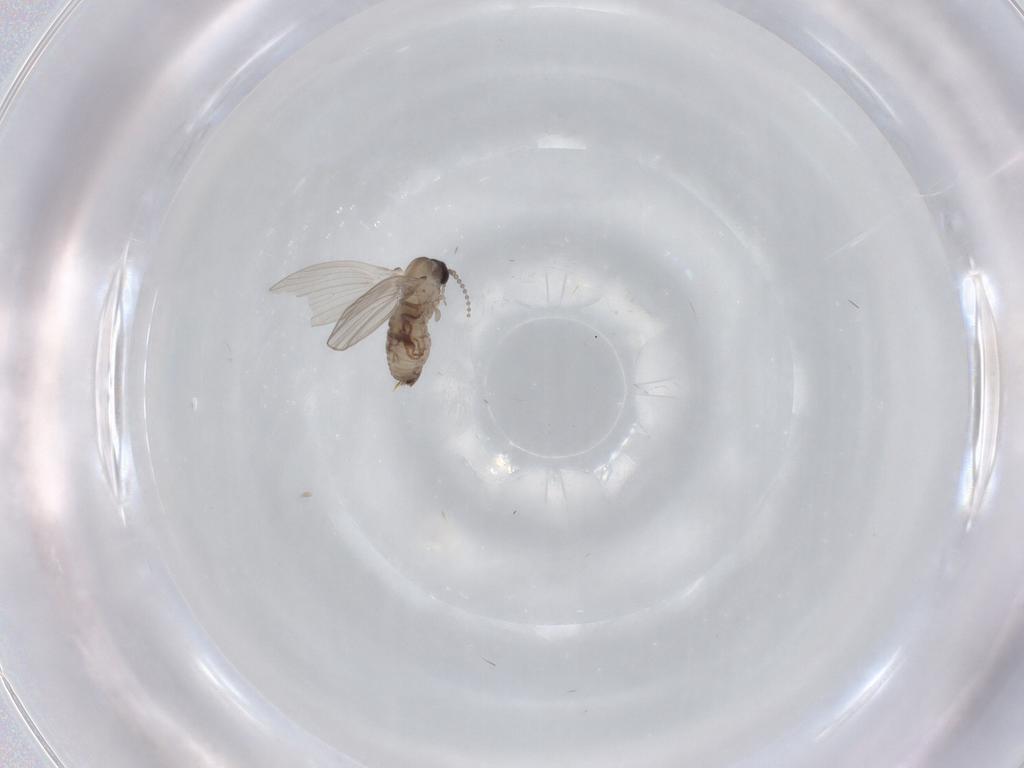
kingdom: Animalia
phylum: Arthropoda
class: Insecta
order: Diptera
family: Psychodidae
